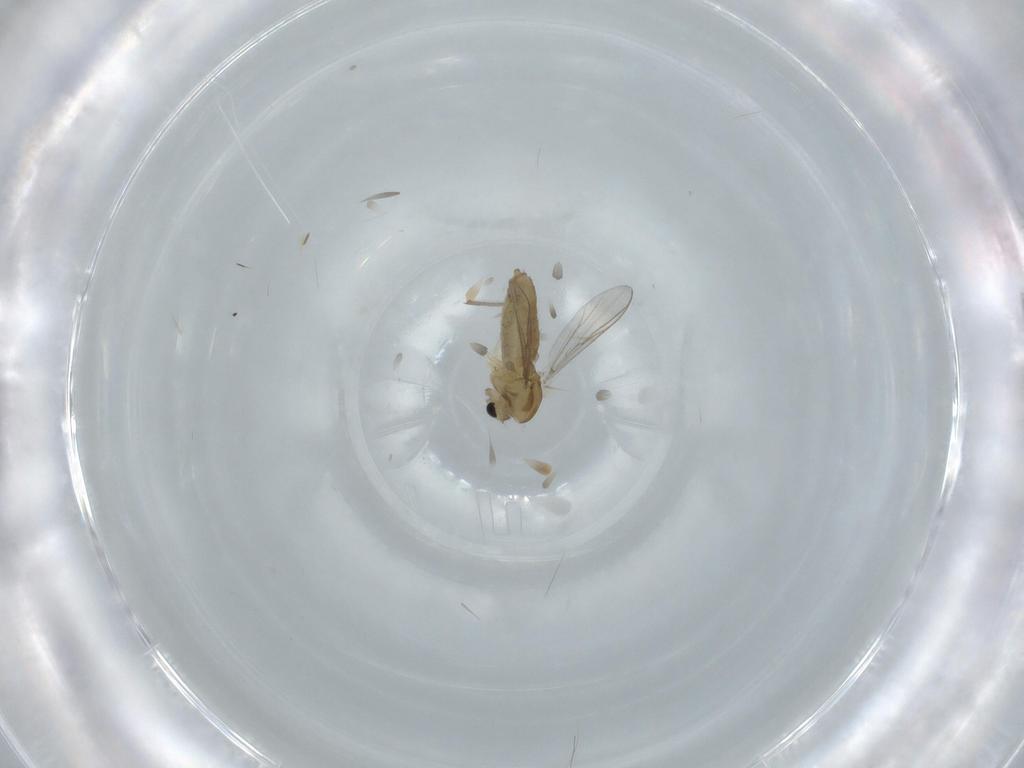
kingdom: Animalia
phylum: Arthropoda
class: Insecta
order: Diptera
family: Chironomidae
